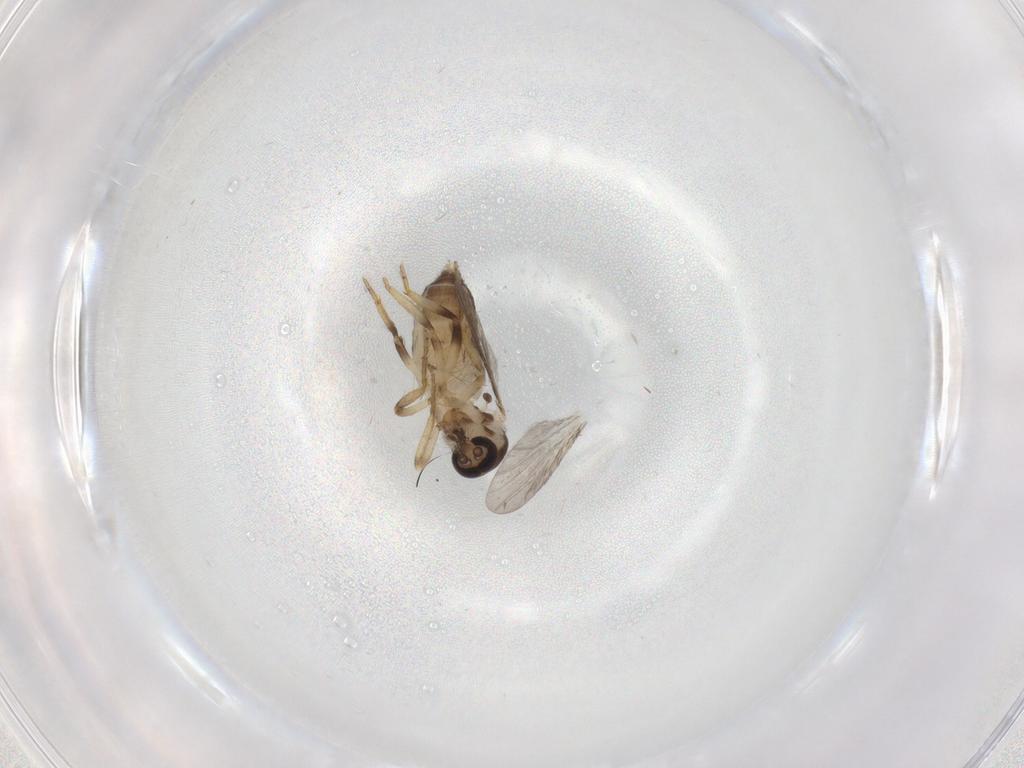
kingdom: Animalia
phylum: Arthropoda
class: Insecta
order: Diptera
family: Ceratopogonidae
